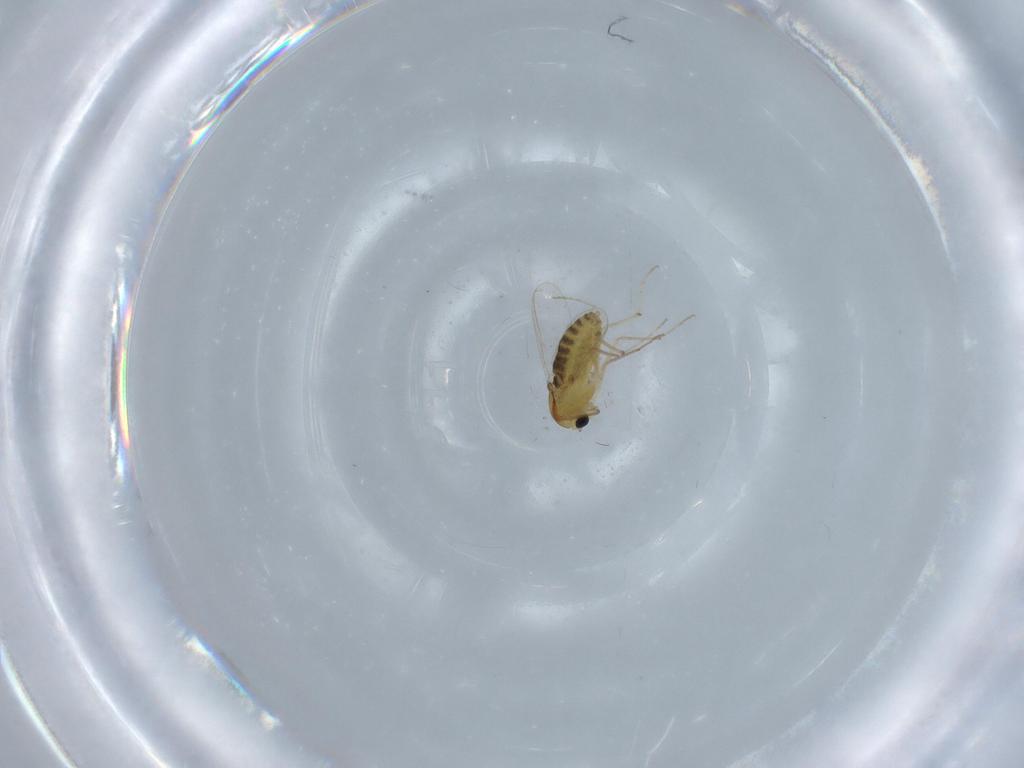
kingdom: Animalia
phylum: Arthropoda
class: Insecta
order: Diptera
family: Chironomidae
